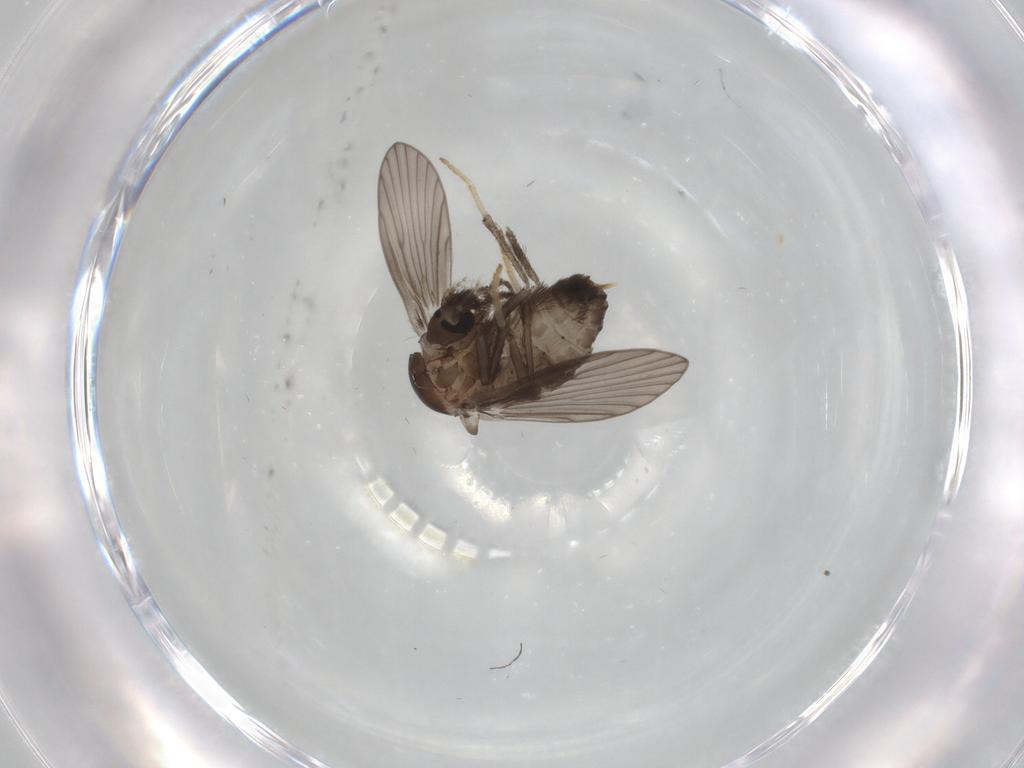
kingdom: Animalia
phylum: Arthropoda
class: Insecta
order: Diptera
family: Psychodidae
